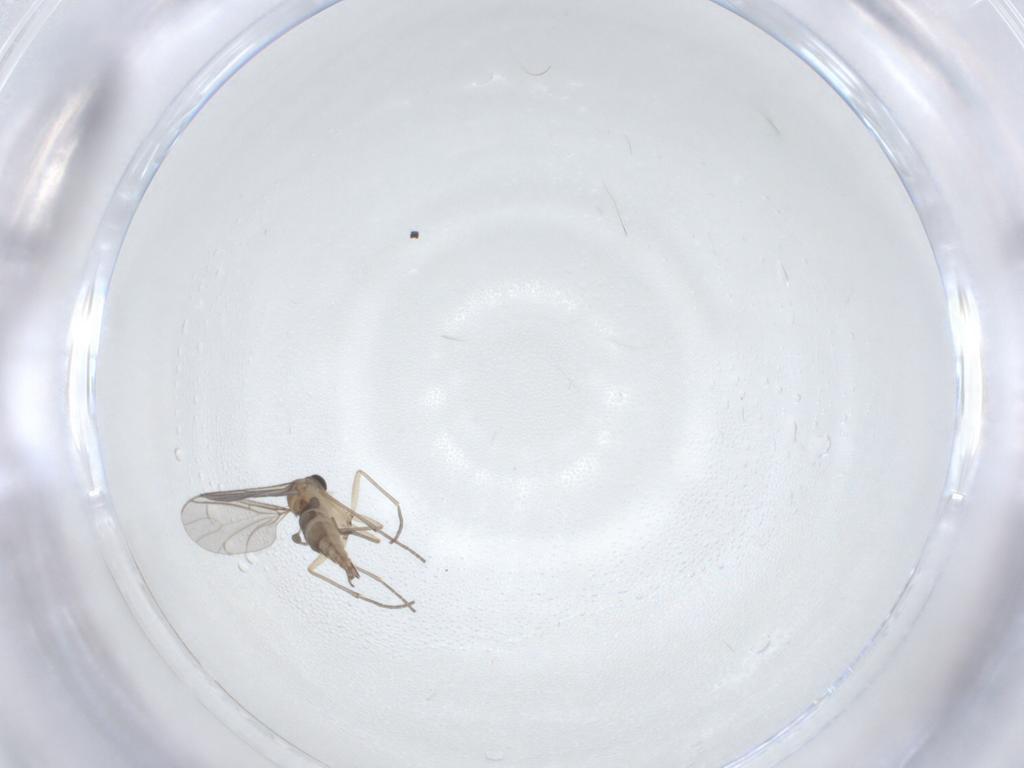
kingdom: Animalia
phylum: Arthropoda
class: Insecta
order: Diptera
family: Sciaridae
